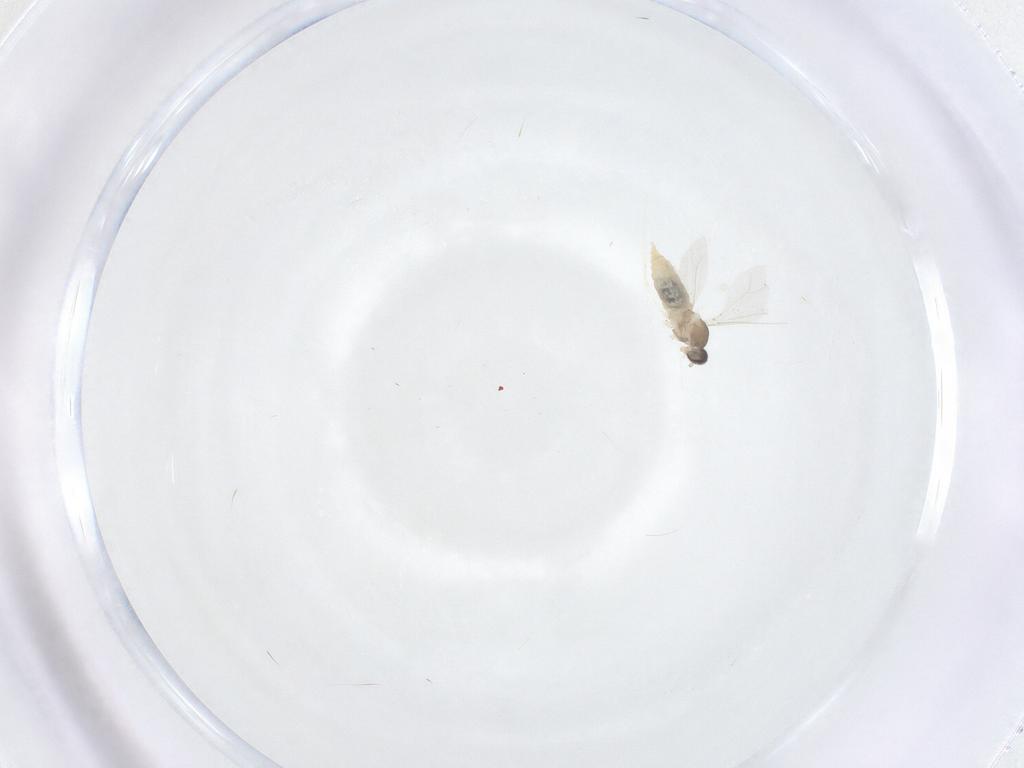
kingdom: Animalia
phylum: Arthropoda
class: Insecta
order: Diptera
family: Cecidomyiidae
